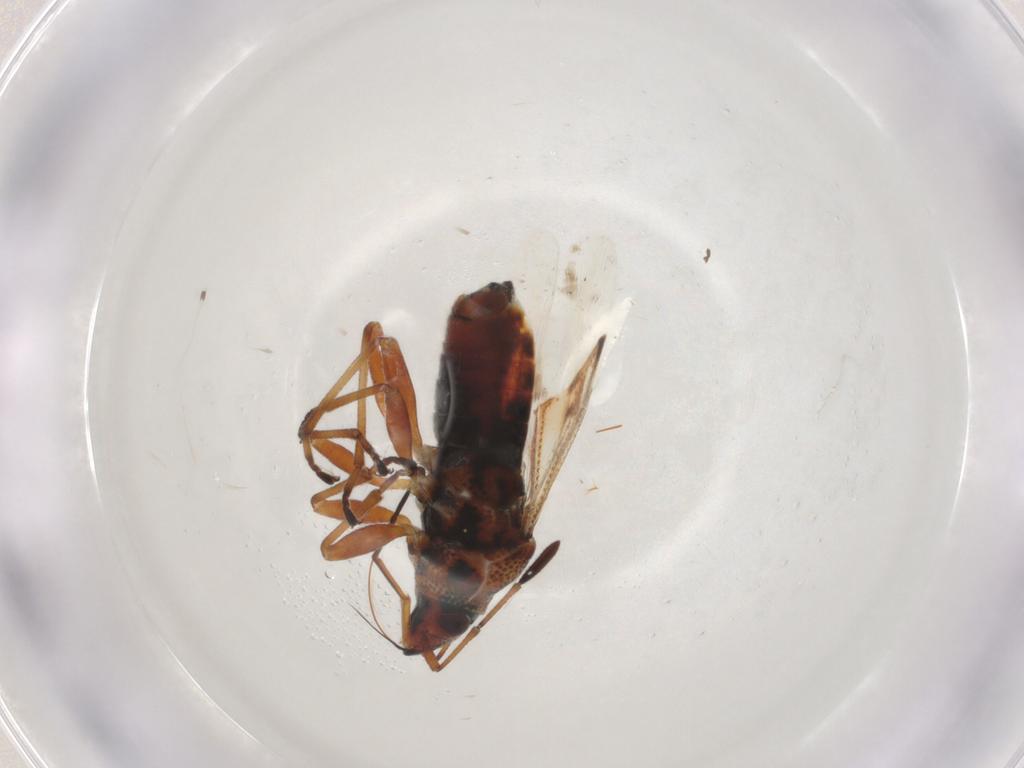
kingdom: Animalia
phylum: Arthropoda
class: Insecta
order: Hemiptera
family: Lygaeidae
